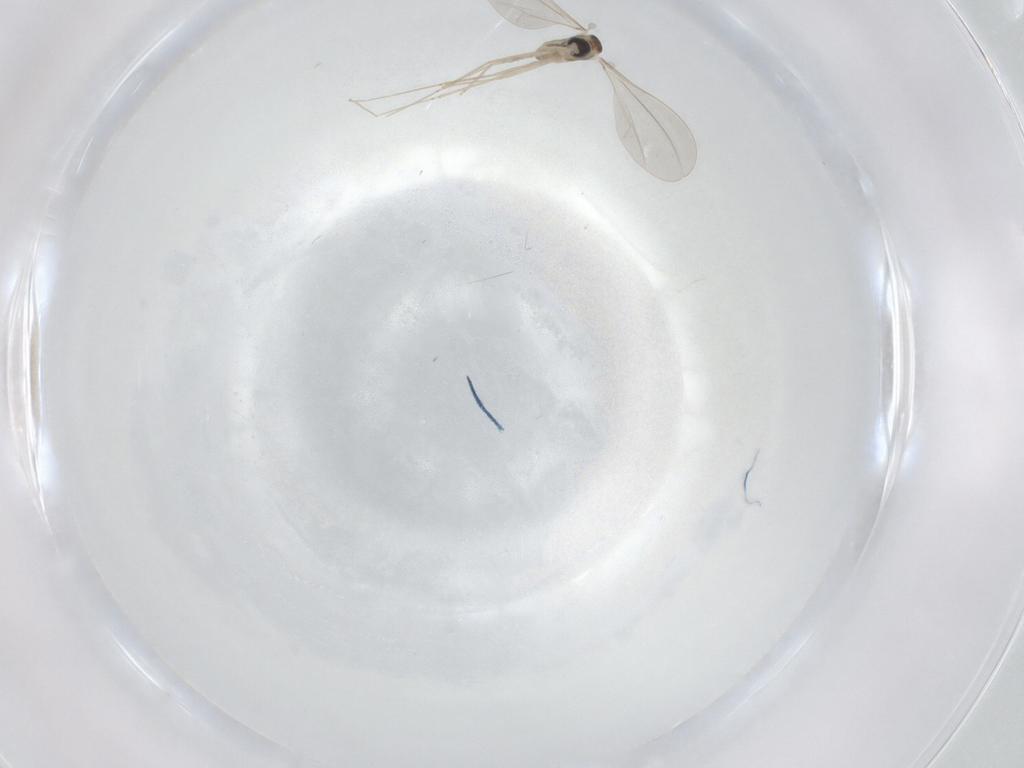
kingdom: Animalia
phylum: Arthropoda
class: Insecta
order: Diptera
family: Cecidomyiidae
